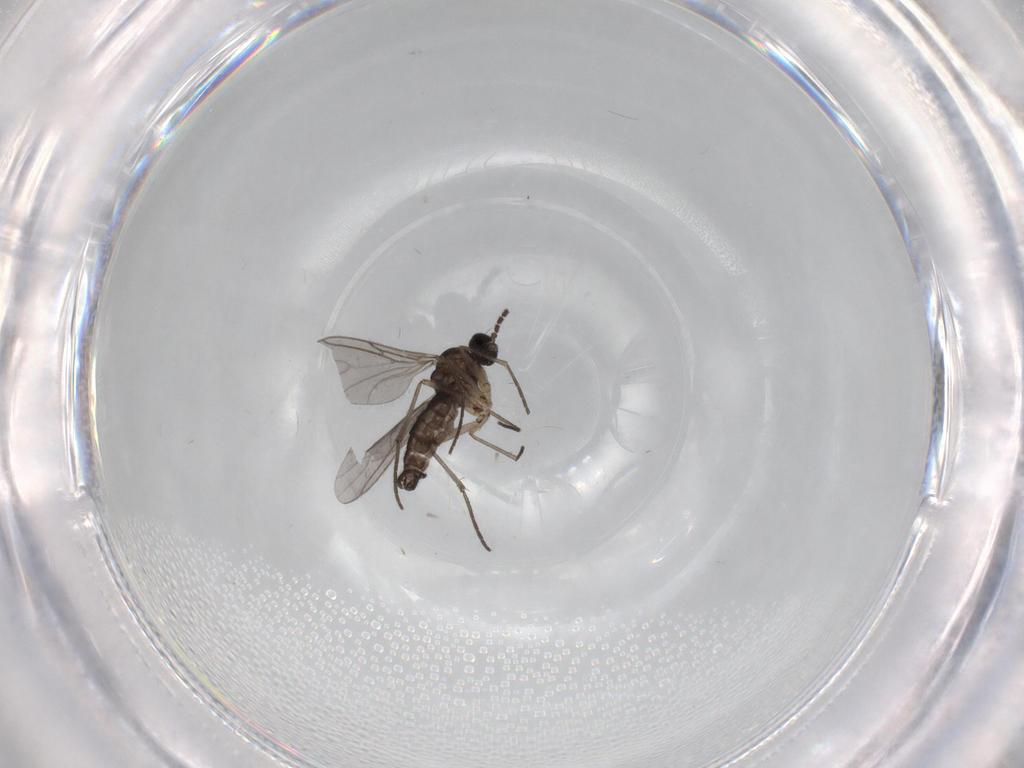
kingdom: Animalia
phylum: Arthropoda
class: Insecta
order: Diptera
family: Sciaridae
